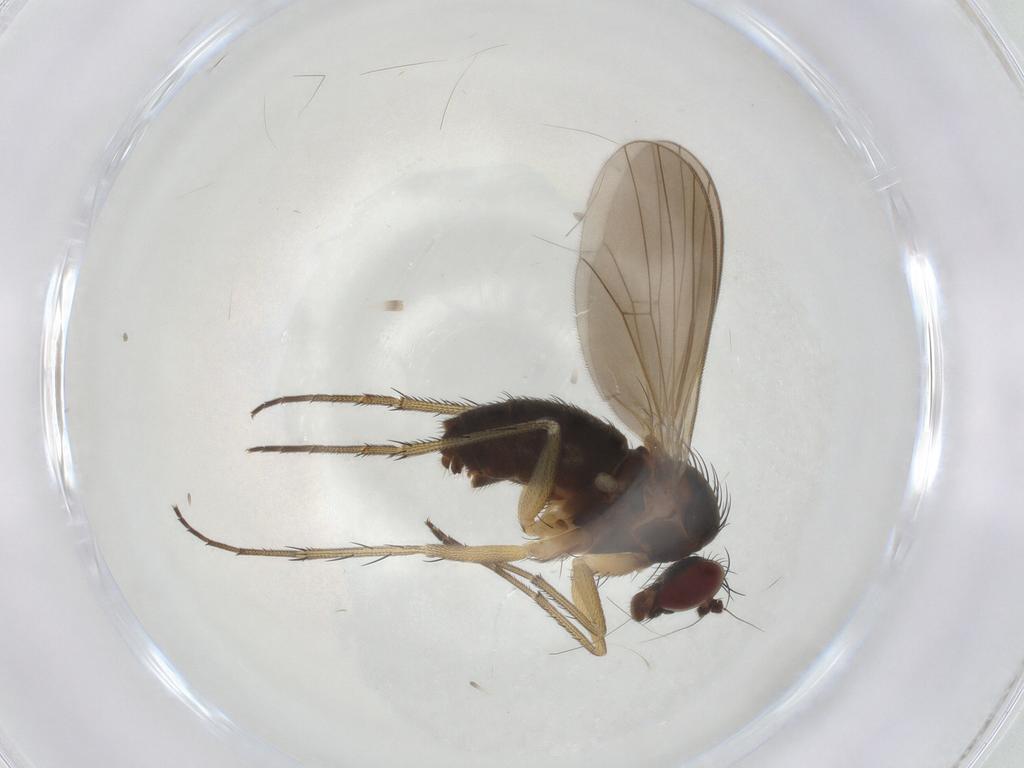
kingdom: Animalia
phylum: Arthropoda
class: Insecta
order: Diptera
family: Dolichopodidae
